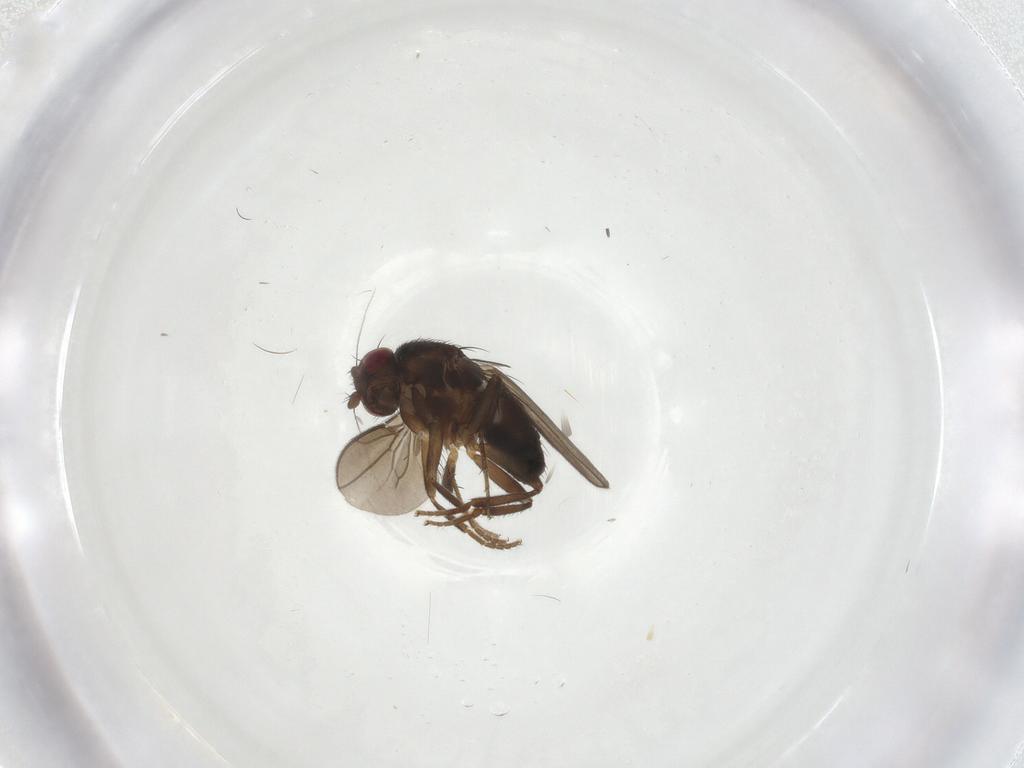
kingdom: Animalia
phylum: Arthropoda
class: Insecta
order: Diptera
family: Sphaeroceridae
